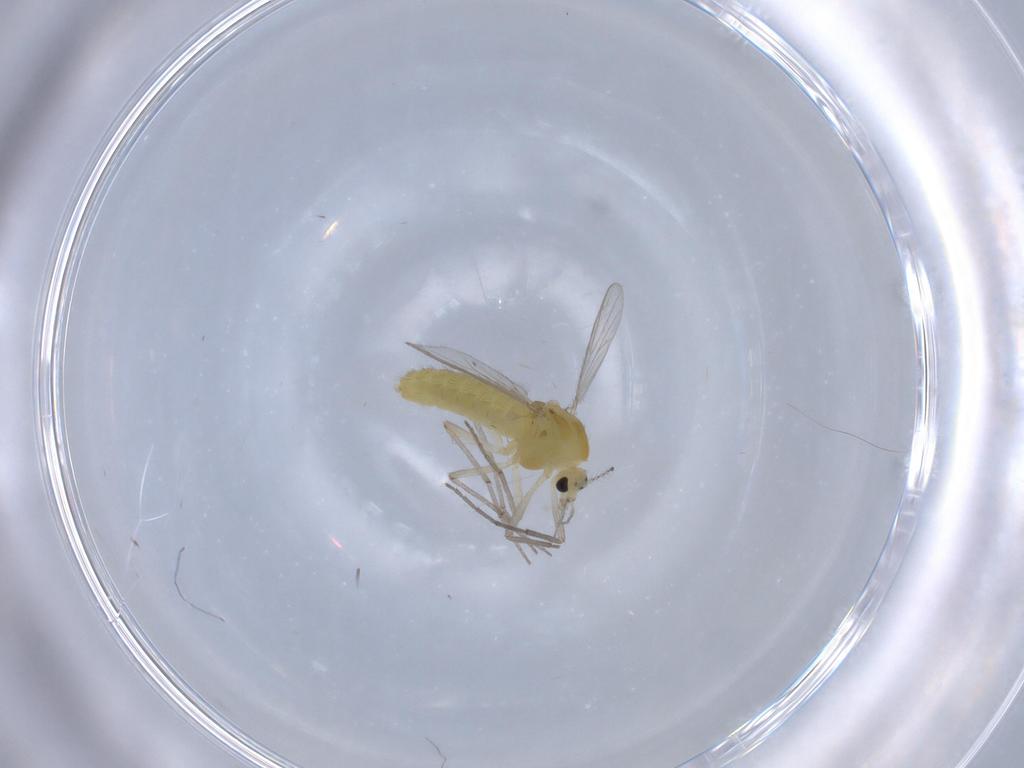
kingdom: Animalia
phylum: Arthropoda
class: Insecta
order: Diptera
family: Chironomidae
